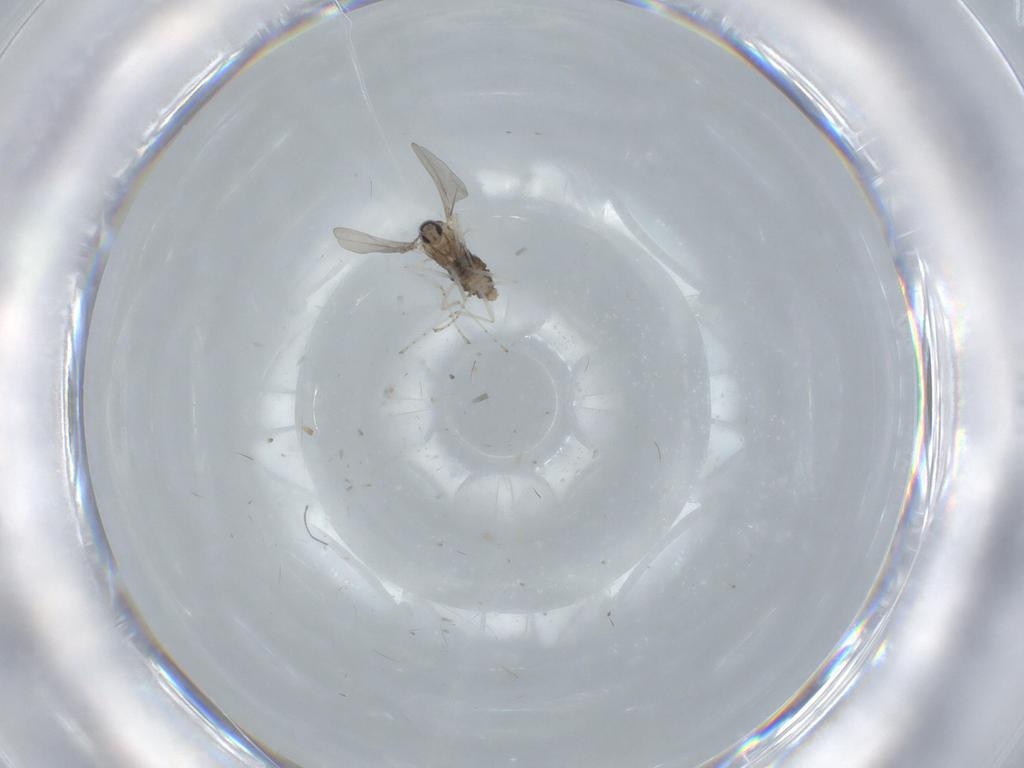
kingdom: Animalia
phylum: Arthropoda
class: Insecta
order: Diptera
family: Cecidomyiidae
